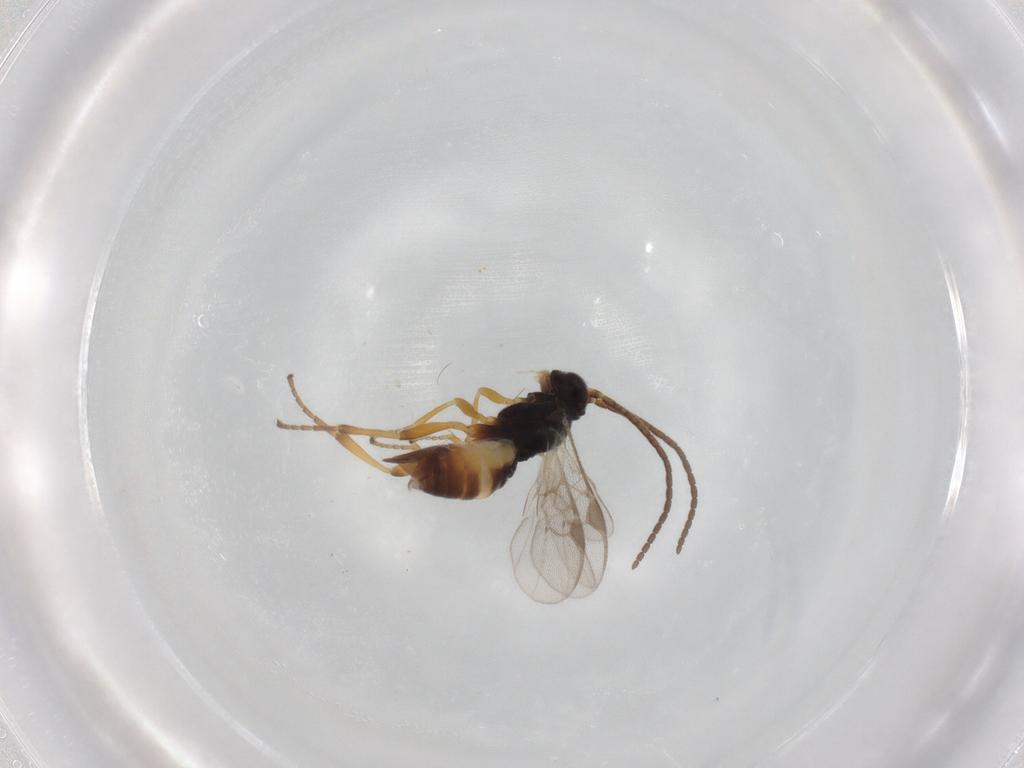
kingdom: Animalia
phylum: Arthropoda
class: Insecta
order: Hymenoptera
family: Braconidae
